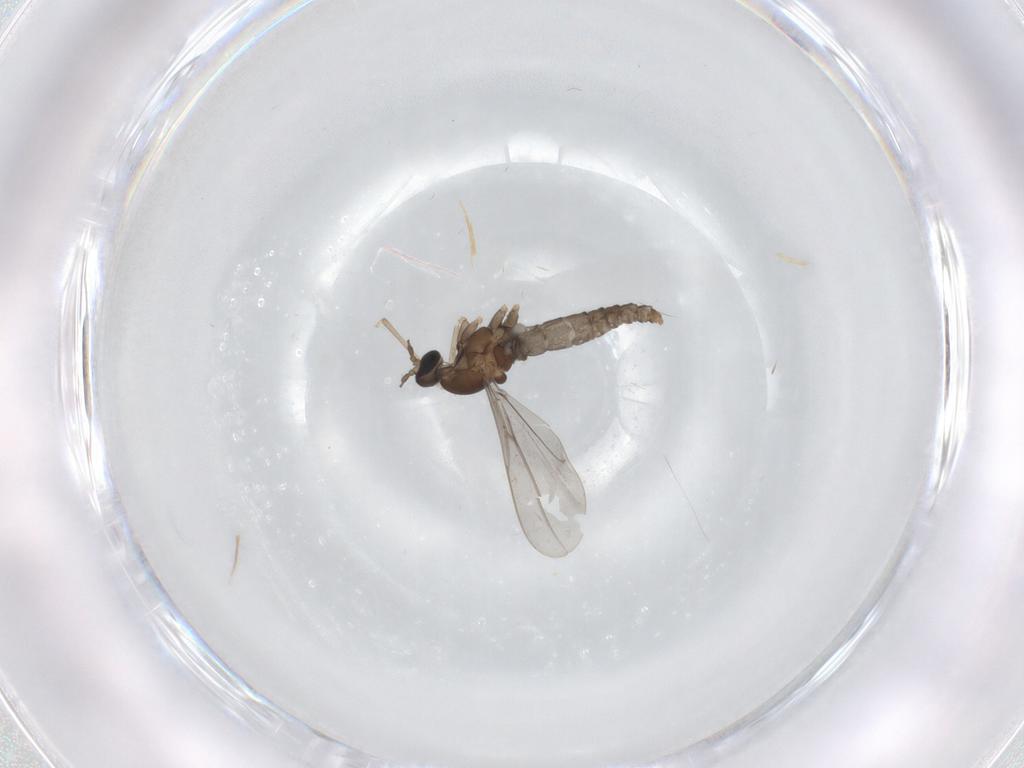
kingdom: Animalia
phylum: Arthropoda
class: Insecta
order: Diptera
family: Cecidomyiidae
